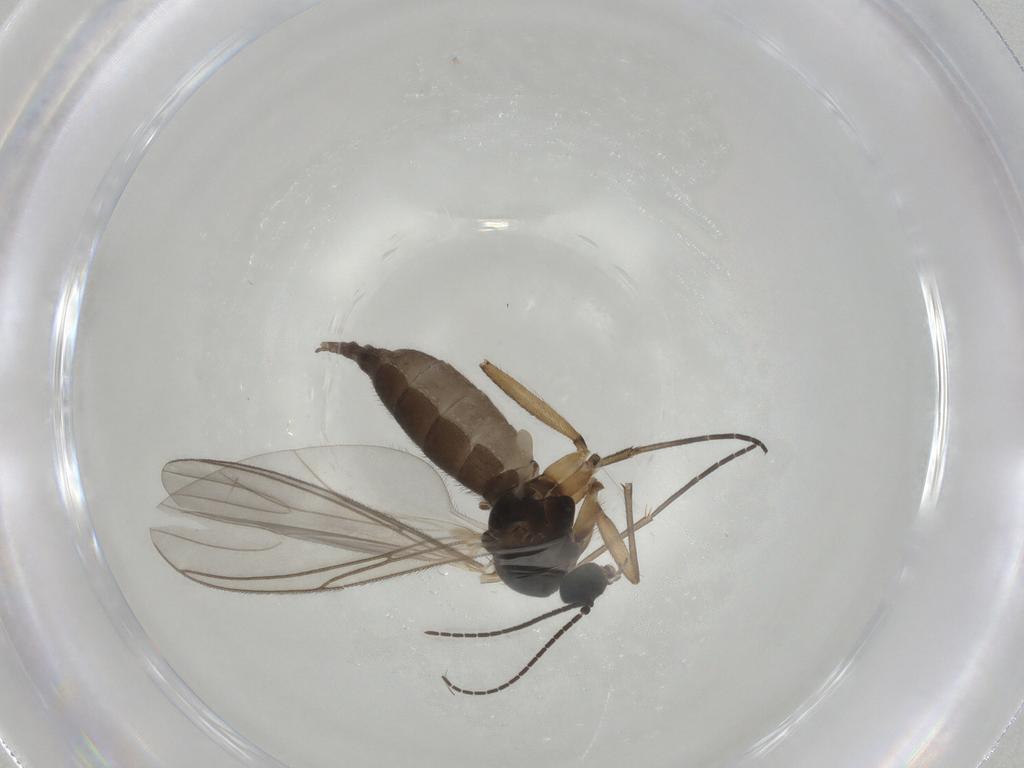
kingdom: Animalia
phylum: Arthropoda
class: Insecta
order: Diptera
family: Sciaridae
